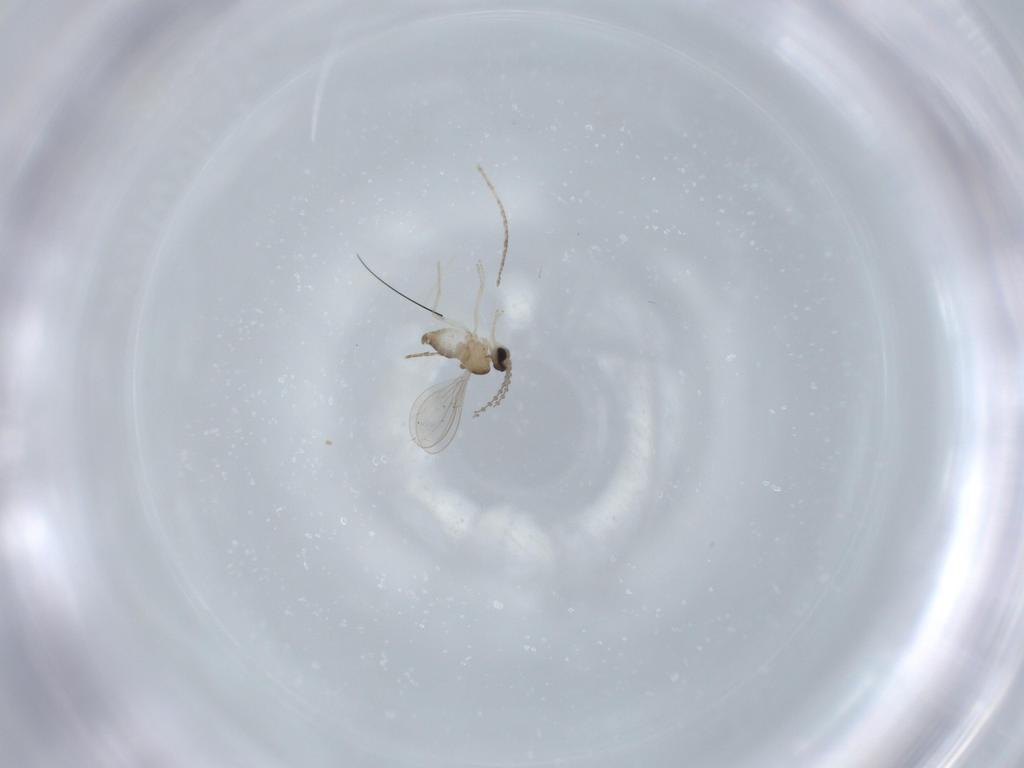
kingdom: Animalia
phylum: Arthropoda
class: Insecta
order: Diptera
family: Cecidomyiidae
